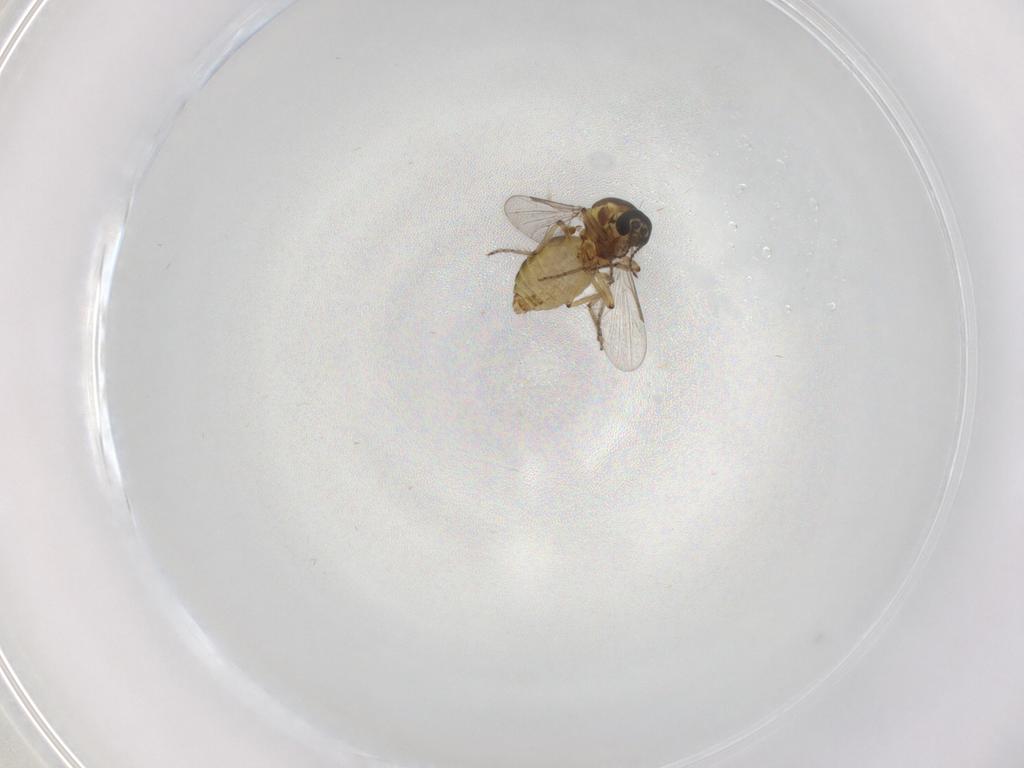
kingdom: Animalia
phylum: Arthropoda
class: Insecta
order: Diptera
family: Ceratopogonidae
